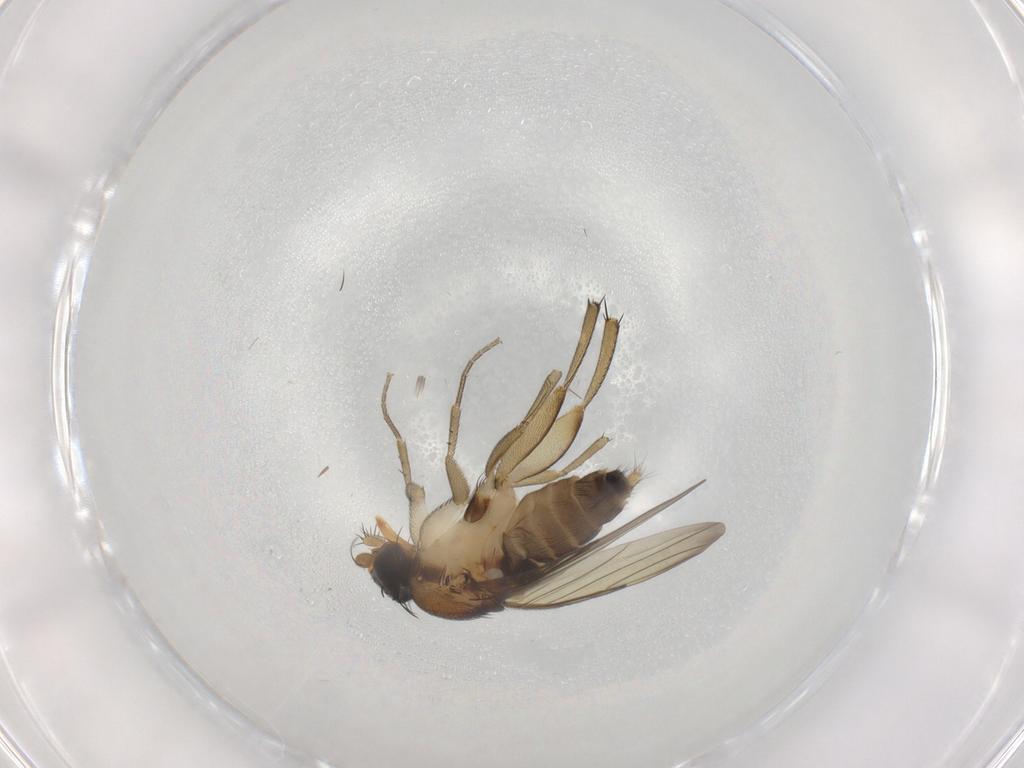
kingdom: Animalia
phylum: Arthropoda
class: Insecta
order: Diptera
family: Phoridae
